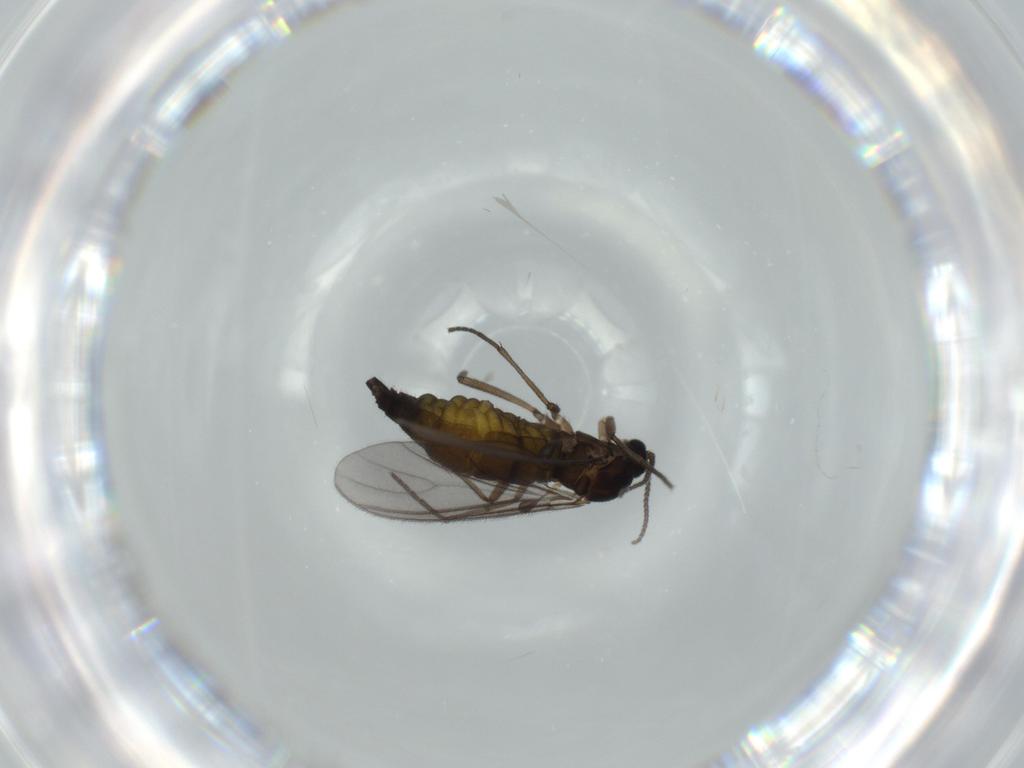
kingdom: Animalia
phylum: Arthropoda
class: Insecta
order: Diptera
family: Sciaridae
